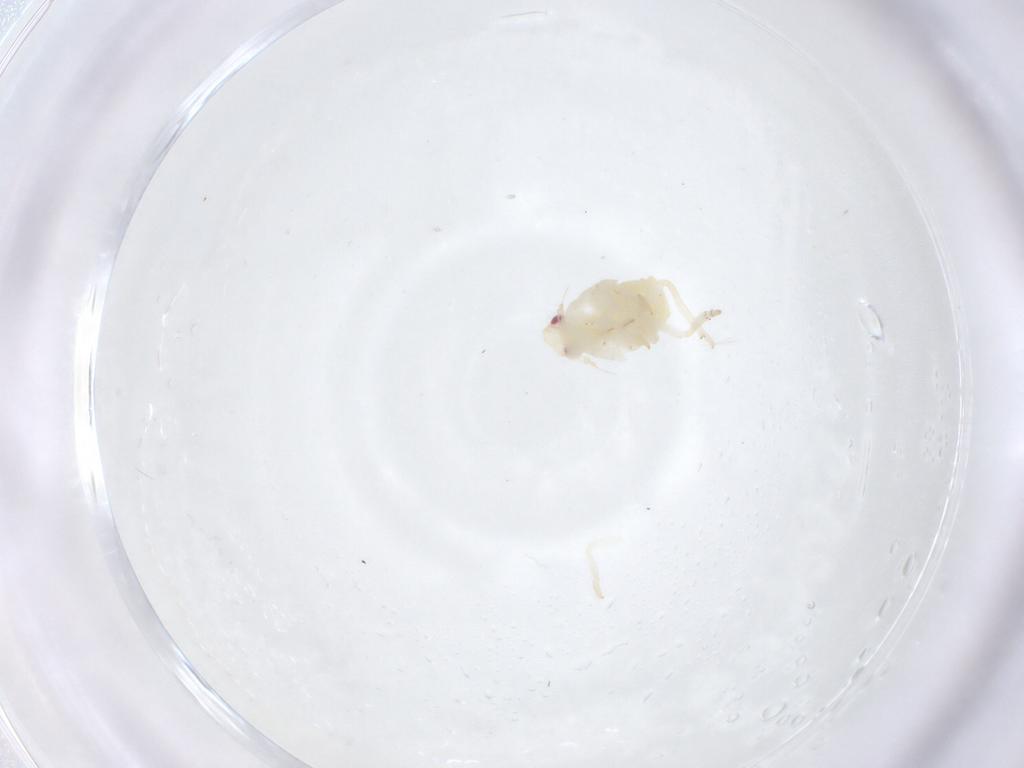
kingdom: Animalia
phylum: Arthropoda
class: Insecta
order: Hemiptera
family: Fulgoroidea_incertae_sedis
